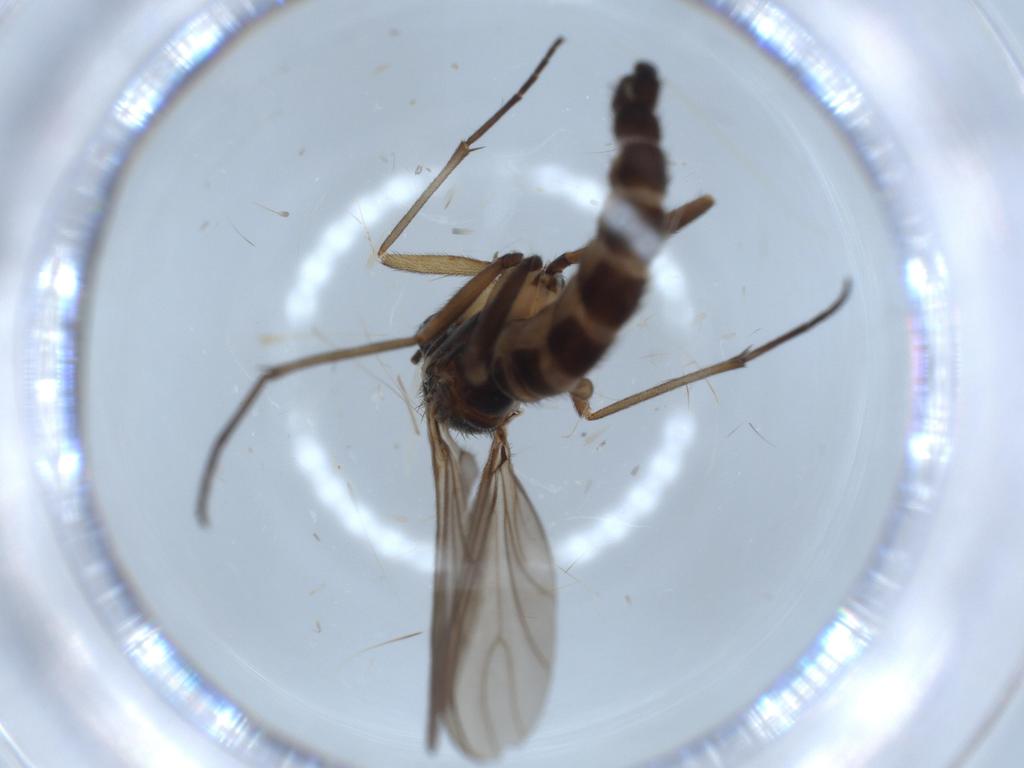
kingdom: Animalia
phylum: Arthropoda
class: Insecta
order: Diptera
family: Sciaridae
